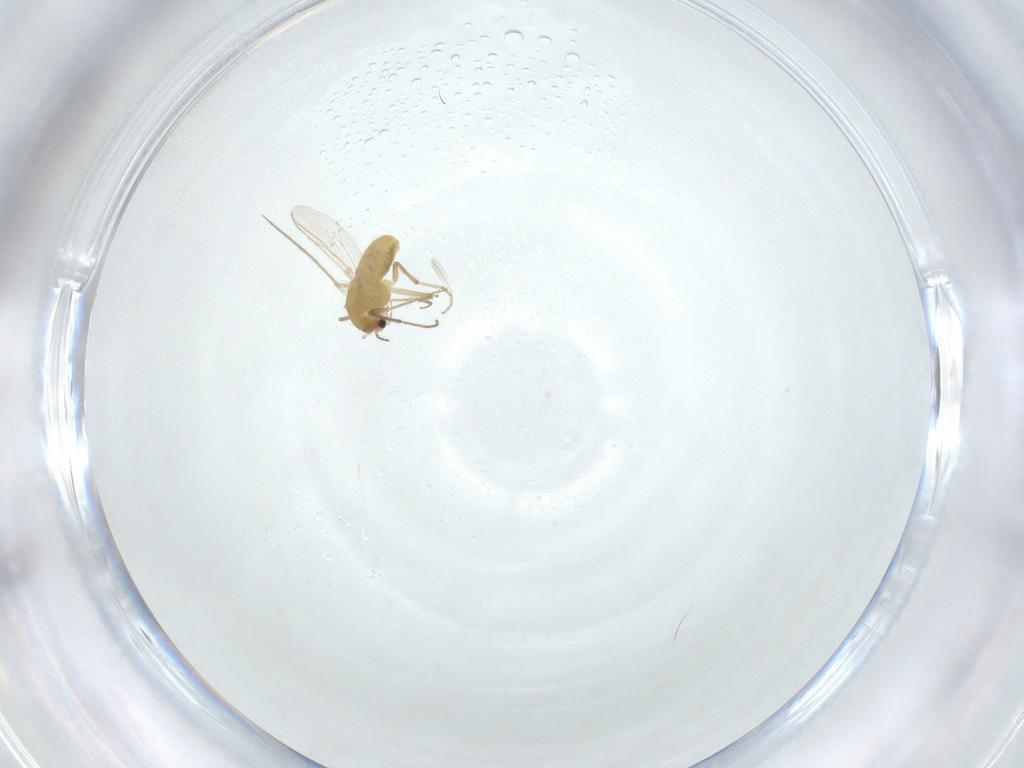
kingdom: Animalia
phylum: Arthropoda
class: Insecta
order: Diptera
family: Chironomidae
